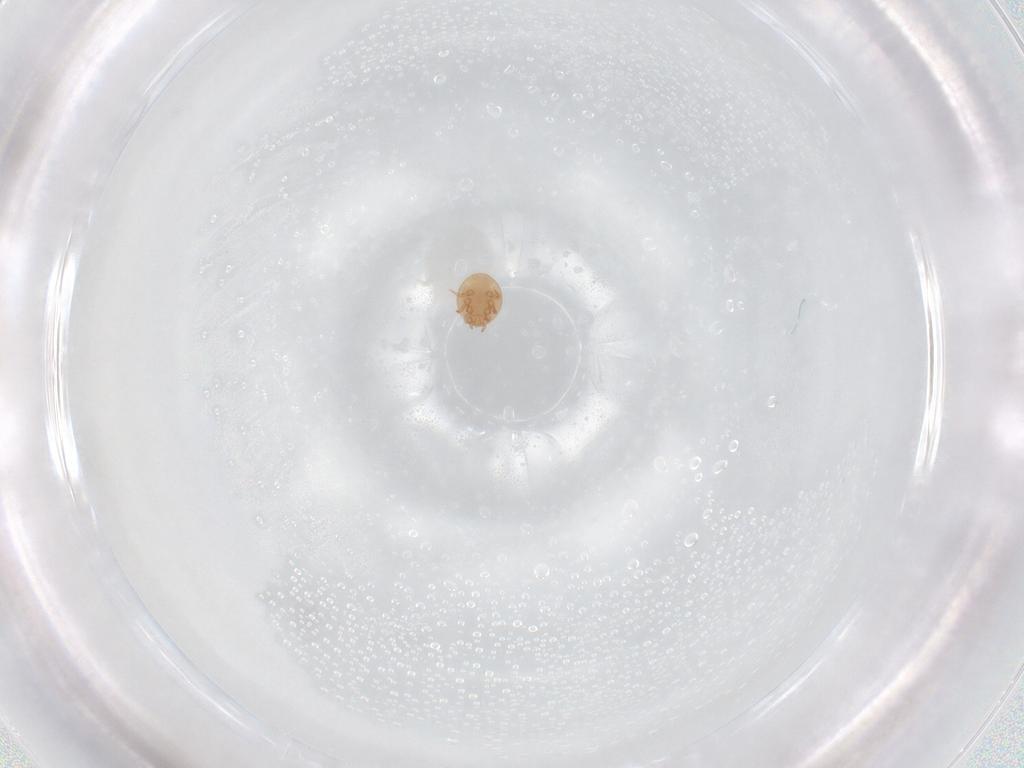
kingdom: Animalia
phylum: Arthropoda
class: Arachnida
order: Mesostigmata
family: Trematuridae
